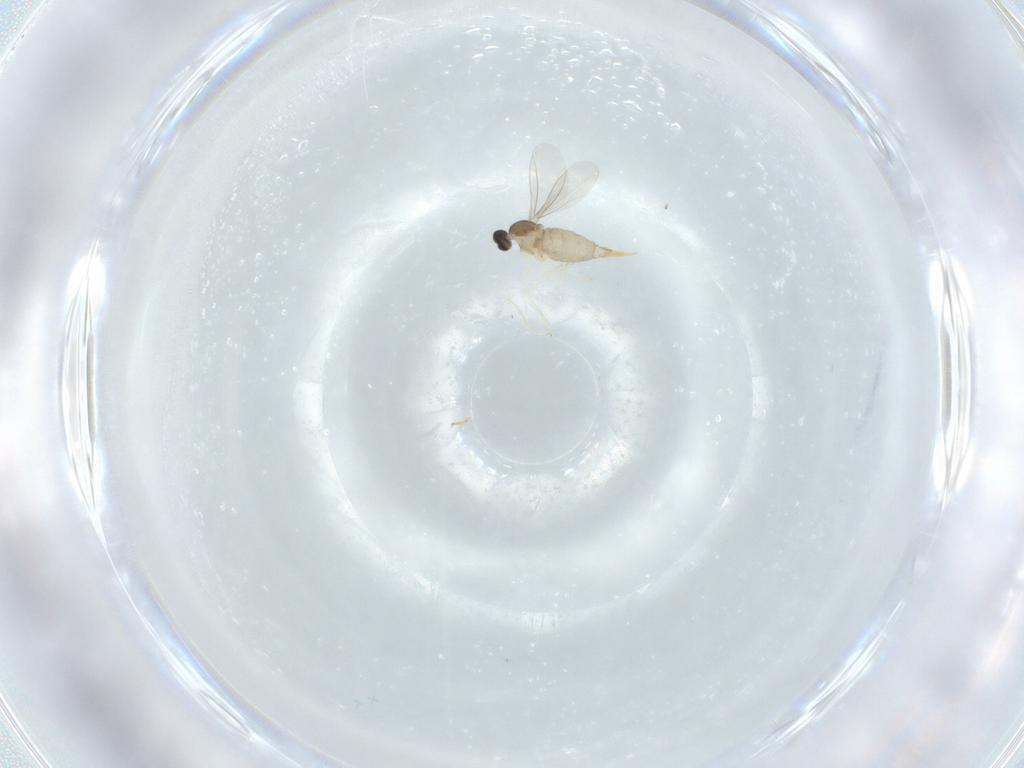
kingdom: Animalia
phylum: Arthropoda
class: Insecta
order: Diptera
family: Cecidomyiidae
